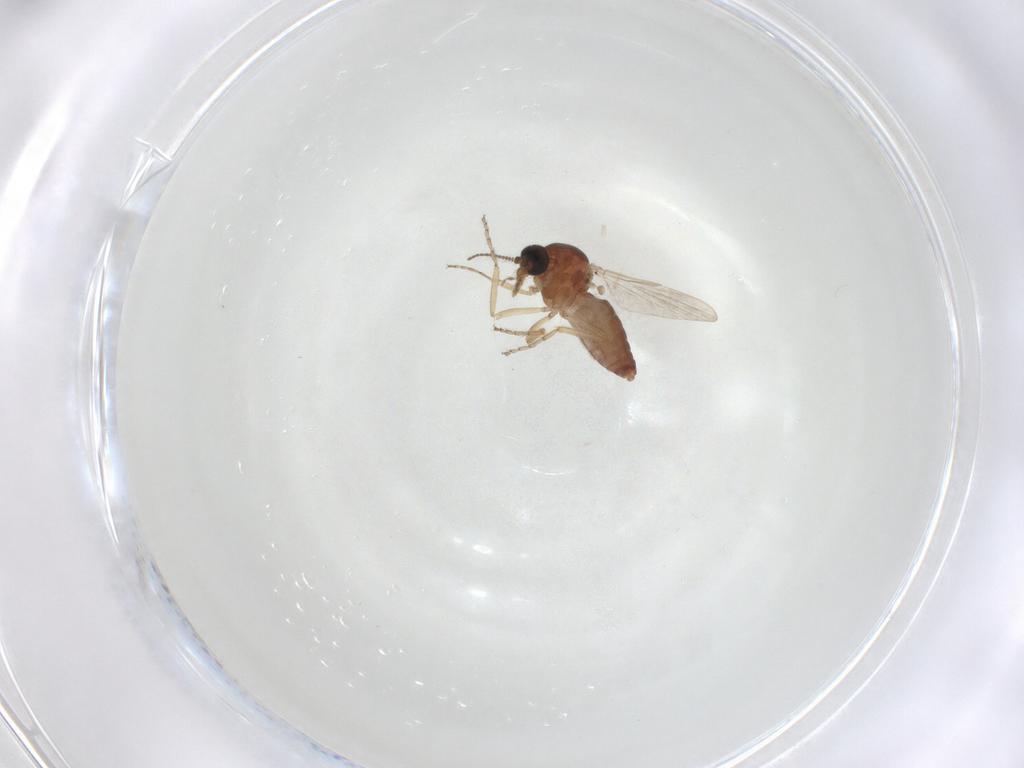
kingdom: Animalia
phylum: Arthropoda
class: Insecta
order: Diptera
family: Ceratopogonidae
